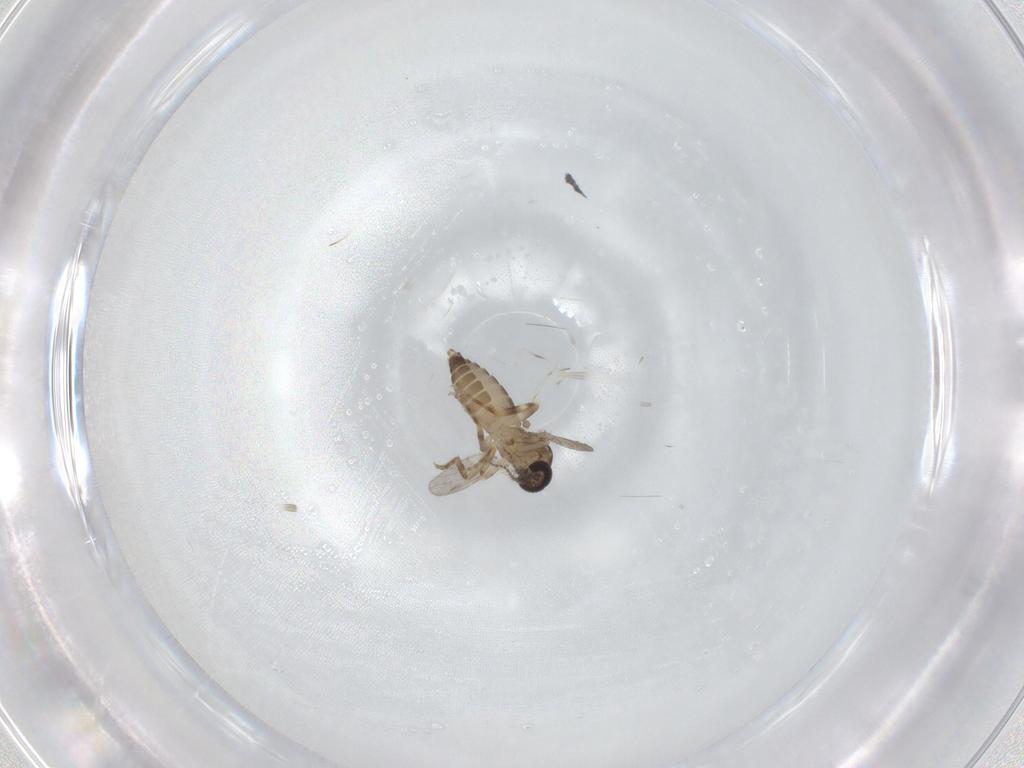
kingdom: Animalia
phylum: Arthropoda
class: Insecta
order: Diptera
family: Ceratopogonidae
